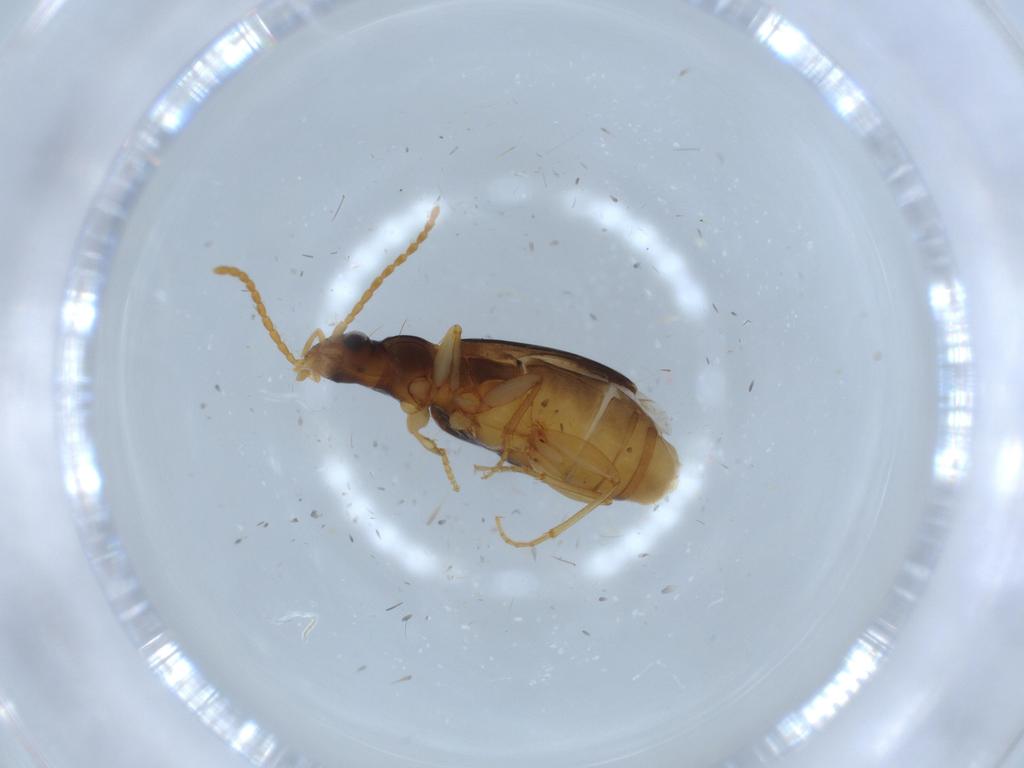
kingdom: Animalia
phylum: Arthropoda
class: Insecta
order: Coleoptera
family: Carabidae
